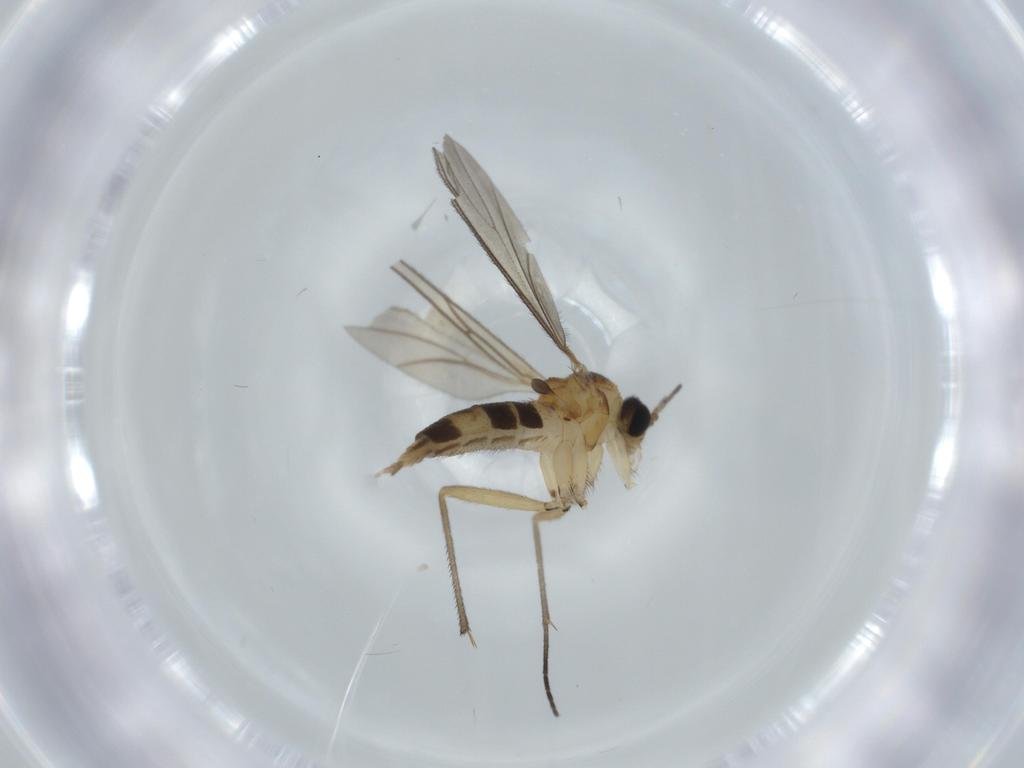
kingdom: Animalia
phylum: Arthropoda
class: Insecta
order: Diptera
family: Sciaridae
